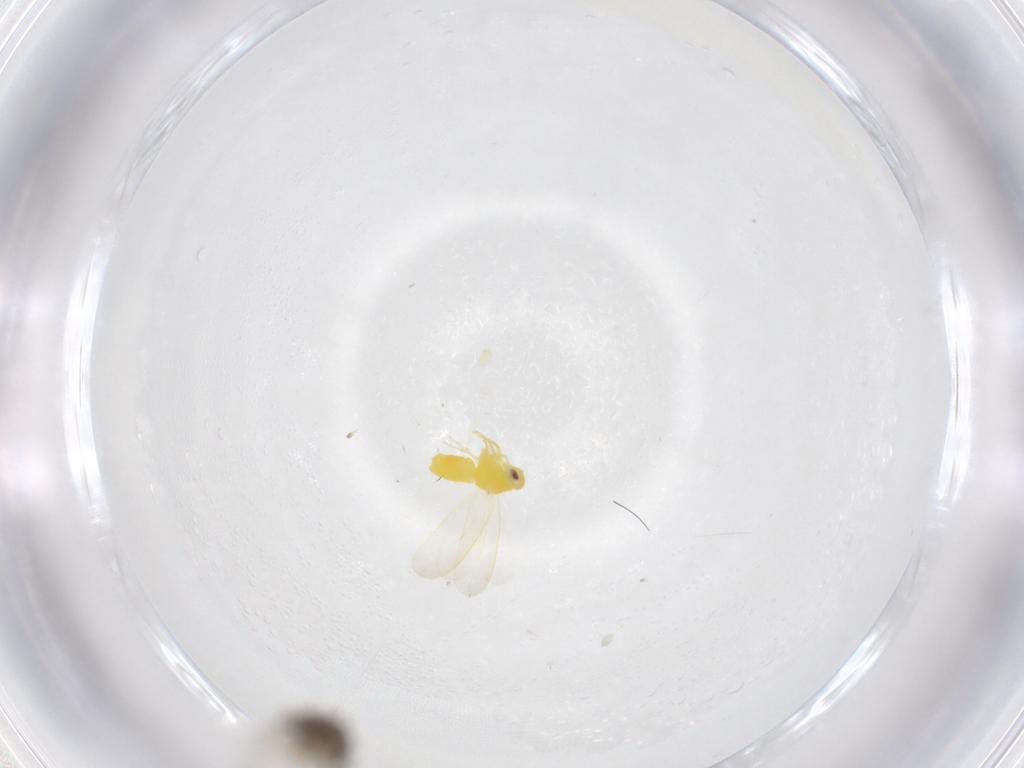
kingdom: Animalia
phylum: Arthropoda
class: Insecta
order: Hemiptera
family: Aleyrodidae
